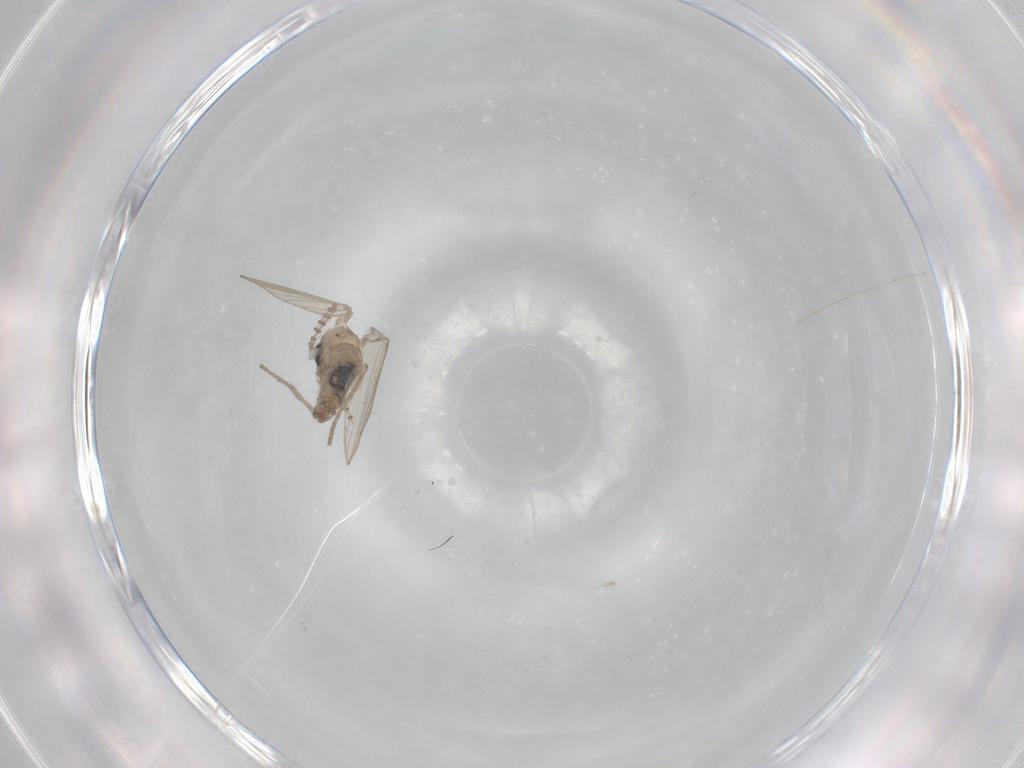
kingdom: Animalia
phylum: Arthropoda
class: Insecta
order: Diptera
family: Psychodidae
